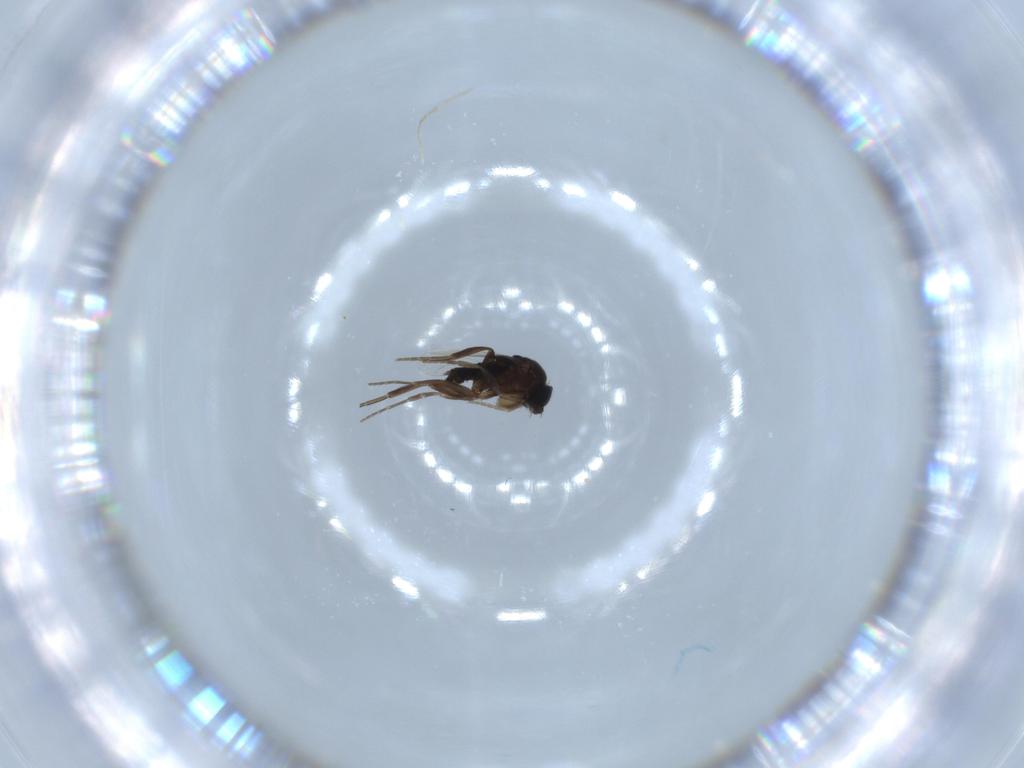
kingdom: Animalia
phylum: Arthropoda
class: Insecta
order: Diptera
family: Phoridae
